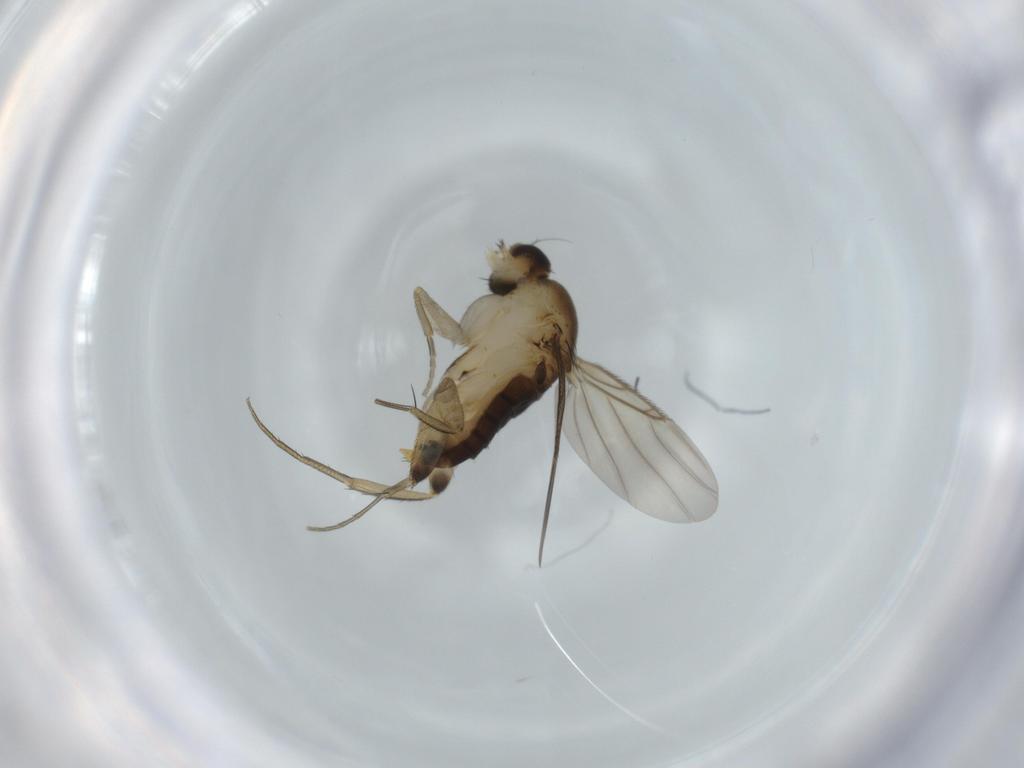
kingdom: Animalia
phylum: Arthropoda
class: Insecta
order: Diptera
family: Phoridae
